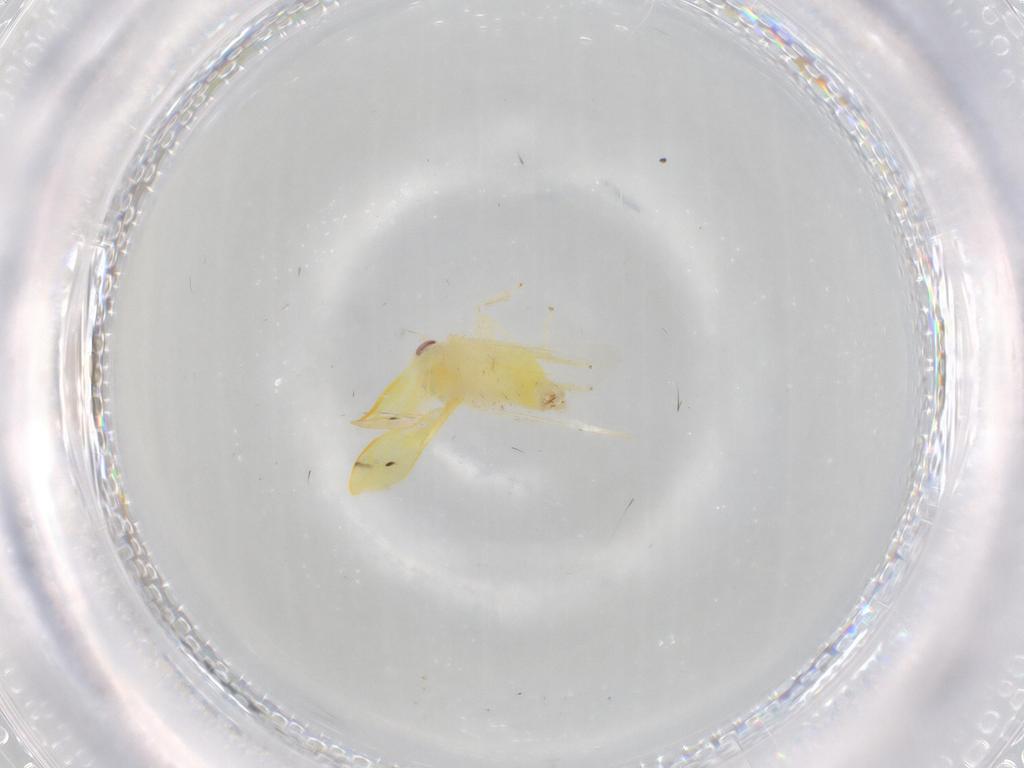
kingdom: Animalia
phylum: Arthropoda
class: Insecta
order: Hemiptera
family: Cicadellidae
